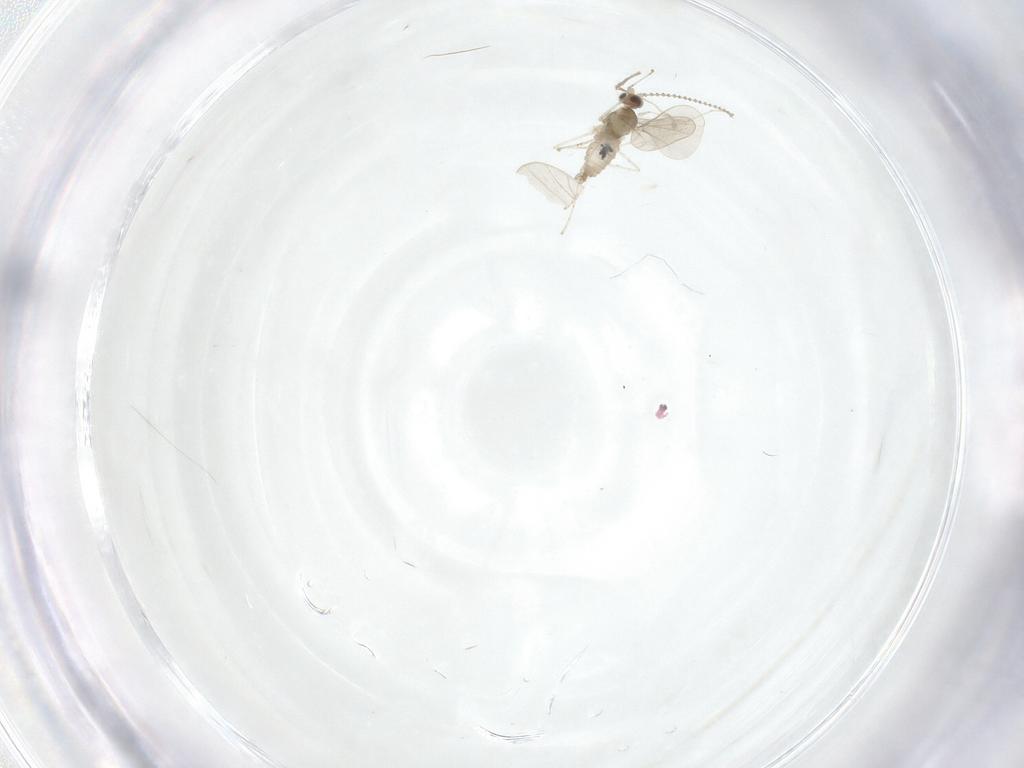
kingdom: Animalia
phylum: Arthropoda
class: Insecta
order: Diptera
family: Cecidomyiidae
